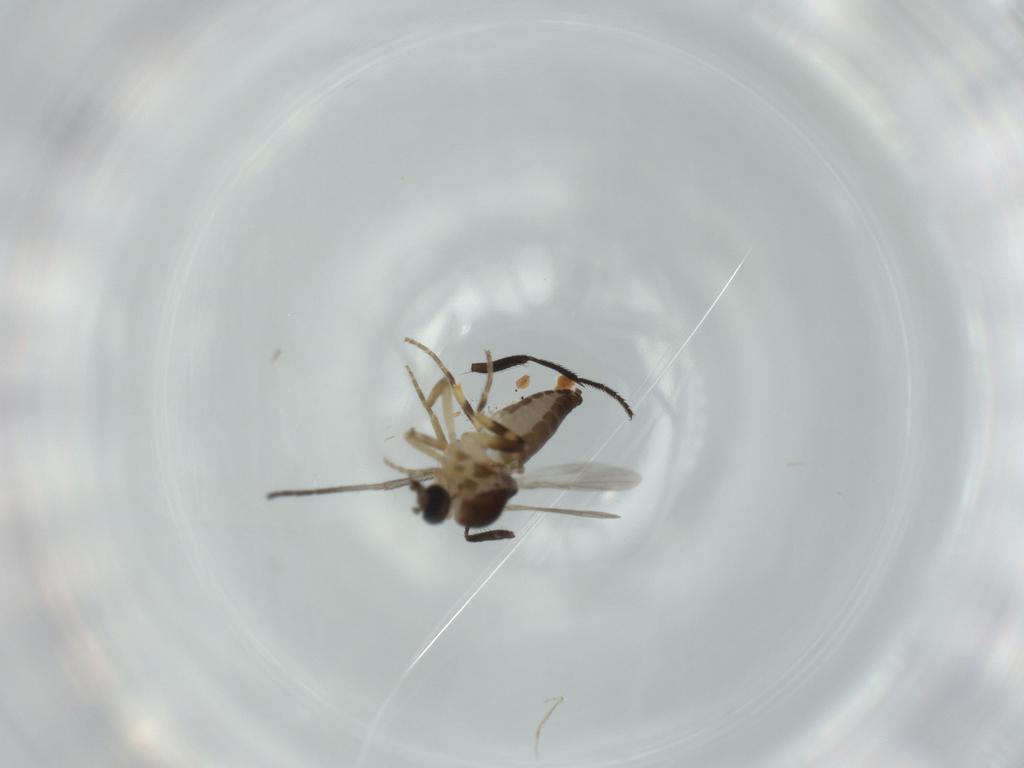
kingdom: Animalia
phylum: Arthropoda
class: Insecta
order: Diptera
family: Ceratopogonidae
